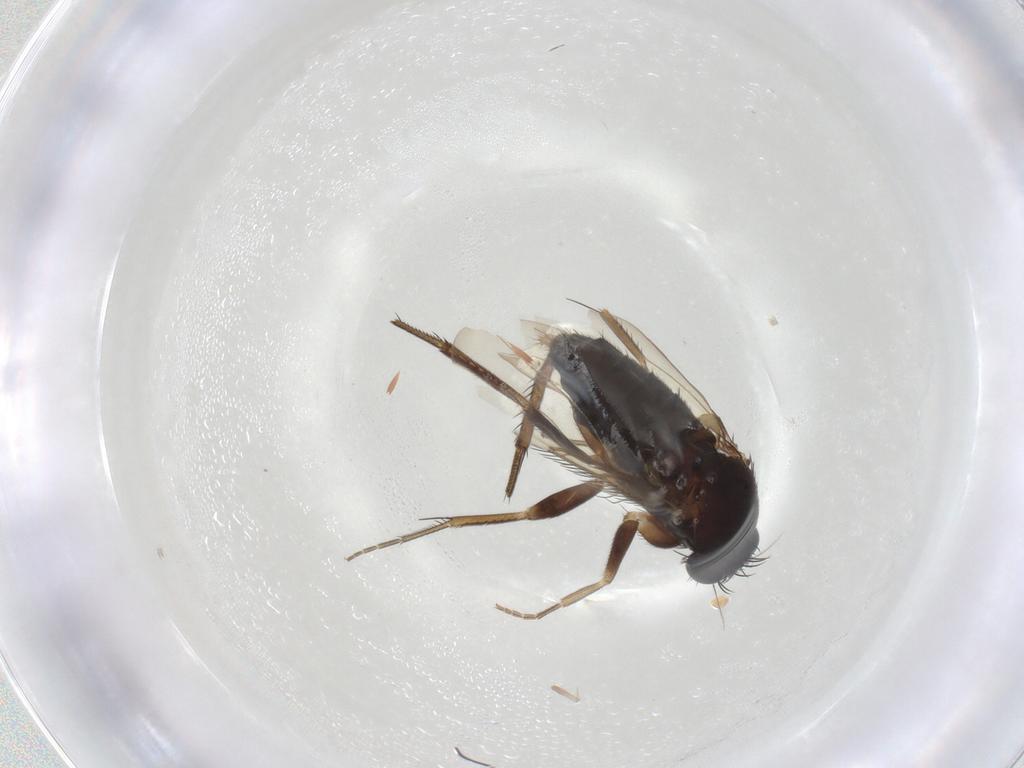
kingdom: Animalia
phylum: Arthropoda
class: Insecta
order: Diptera
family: Phoridae
